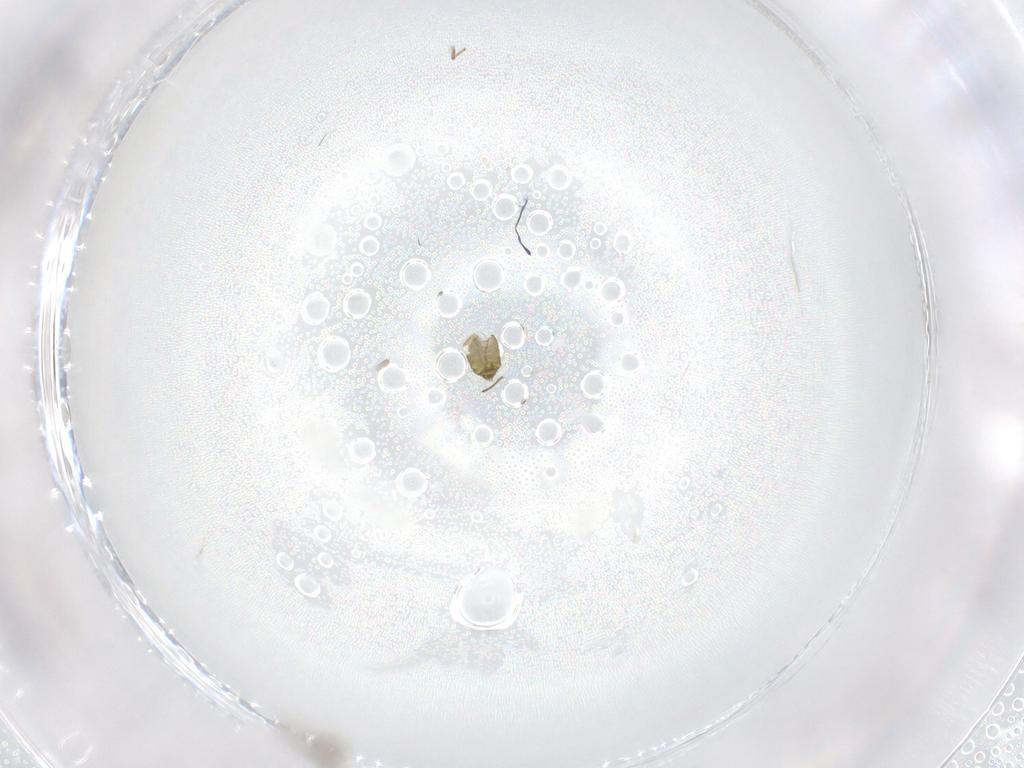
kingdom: Animalia
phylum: Arthropoda
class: Insecta
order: Diptera
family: Ceratopogonidae
